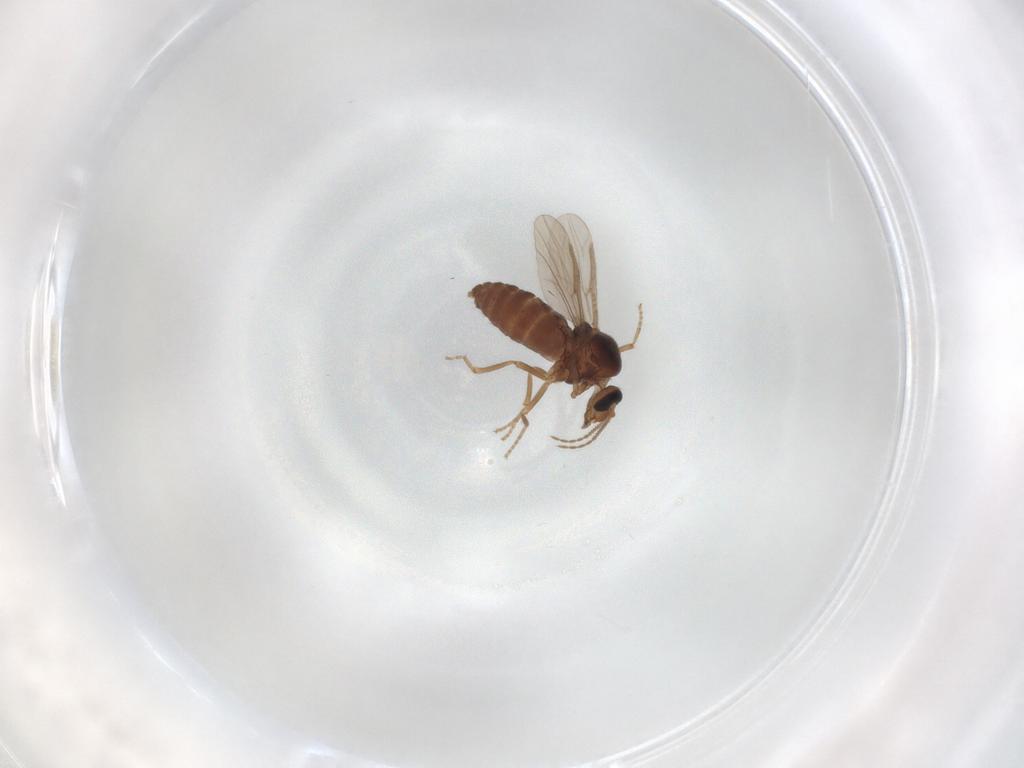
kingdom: Animalia
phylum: Arthropoda
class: Insecta
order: Diptera
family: Ceratopogonidae
